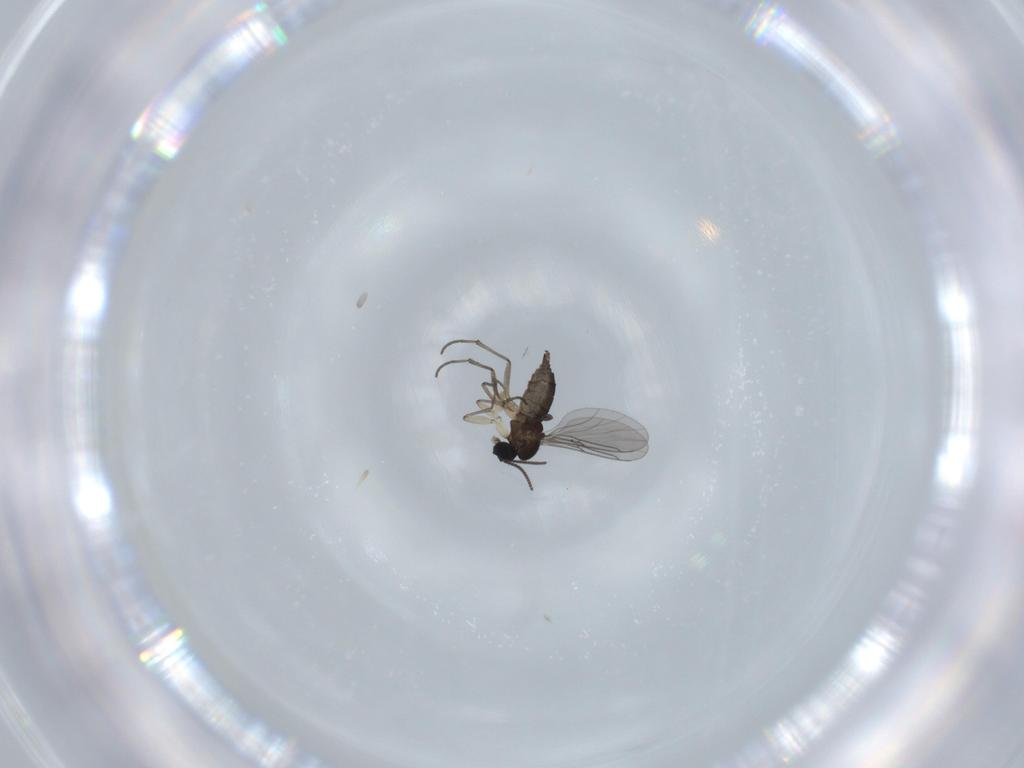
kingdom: Animalia
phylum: Arthropoda
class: Insecta
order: Diptera
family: Sciaridae
